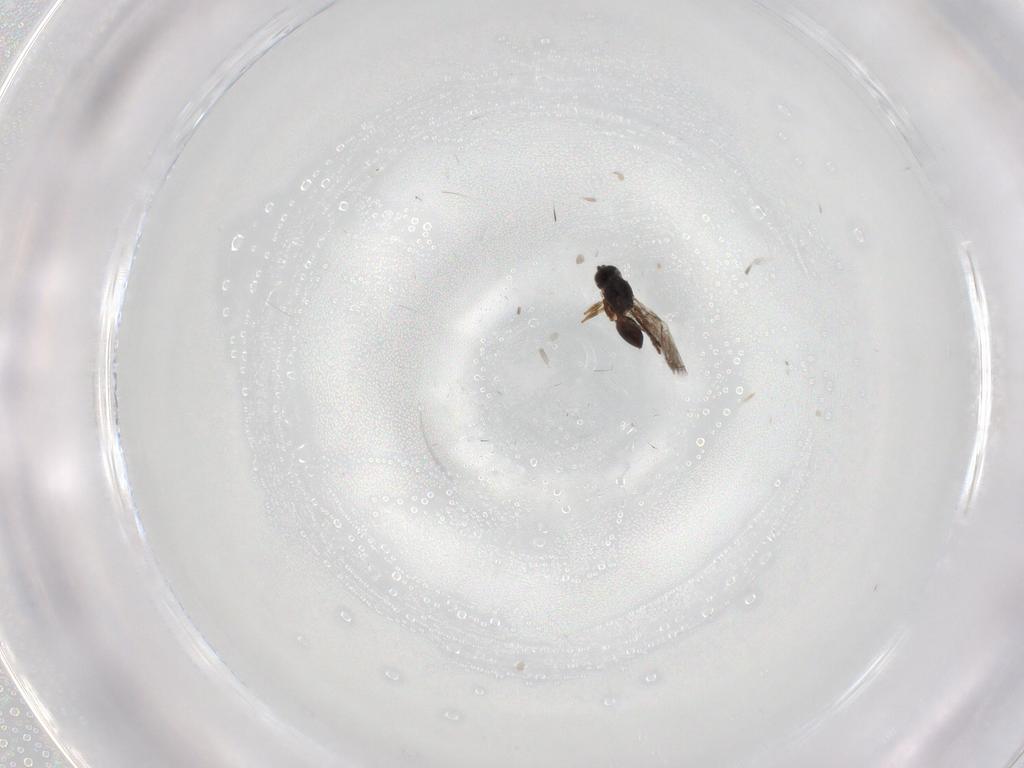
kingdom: Animalia
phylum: Arthropoda
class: Insecta
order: Hymenoptera
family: Figitidae
